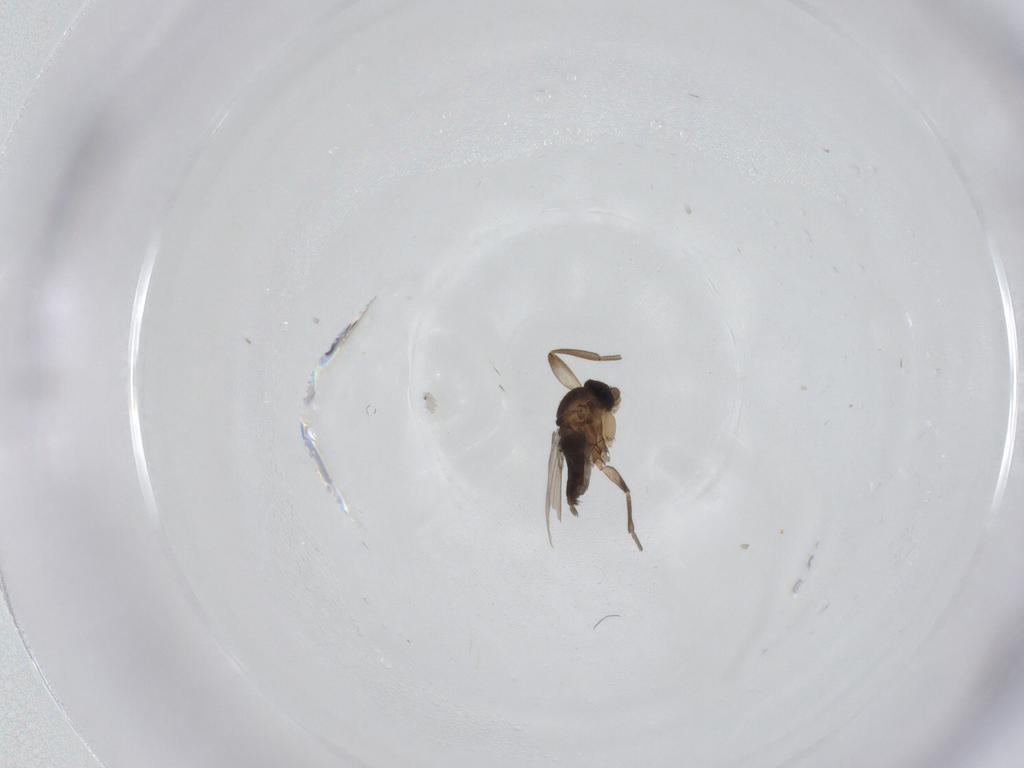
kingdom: Animalia
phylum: Arthropoda
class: Insecta
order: Diptera
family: Phoridae
